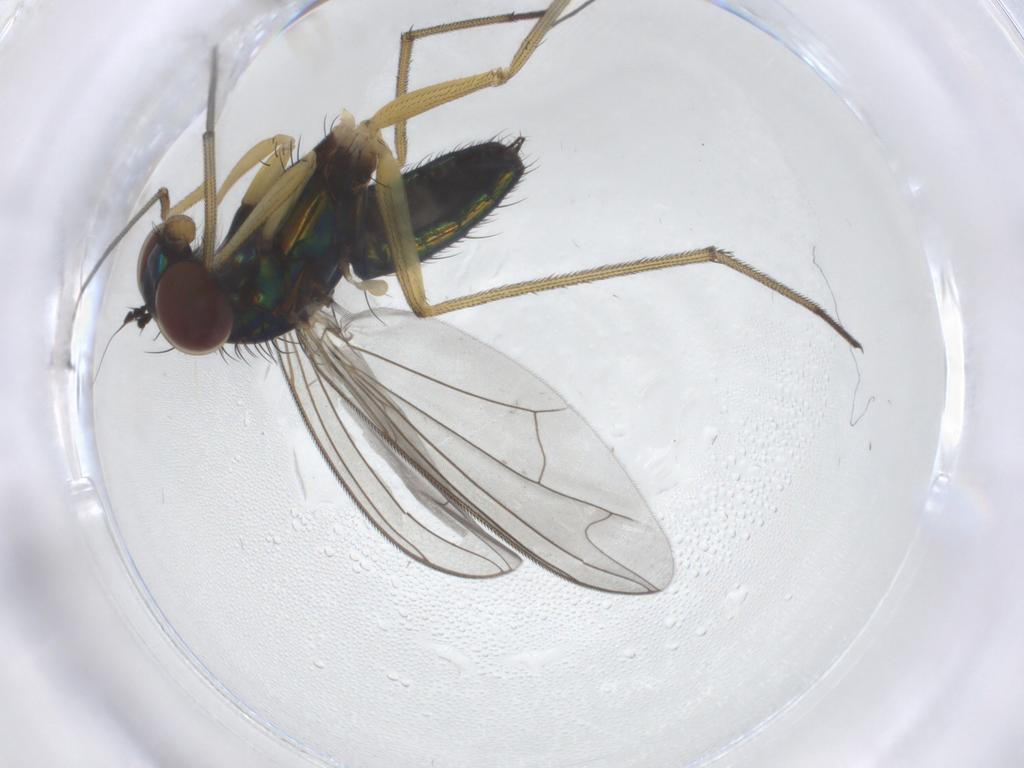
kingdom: Animalia
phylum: Arthropoda
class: Insecta
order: Diptera
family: Dolichopodidae
